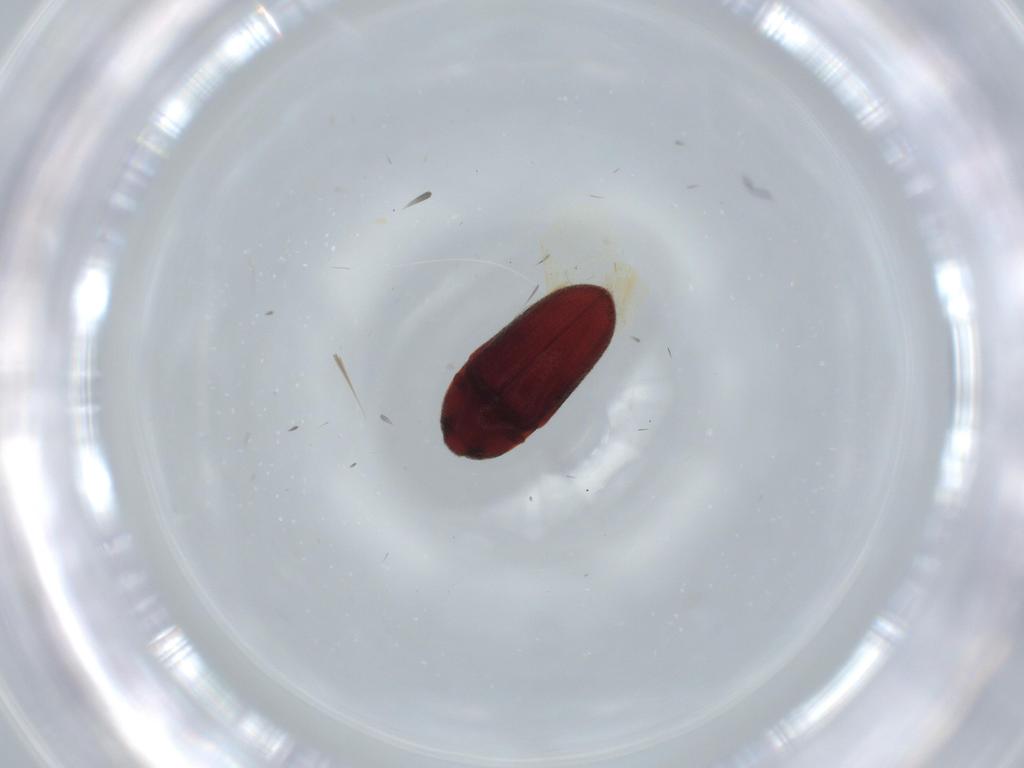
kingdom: Animalia
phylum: Arthropoda
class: Insecta
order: Coleoptera
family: Throscidae
